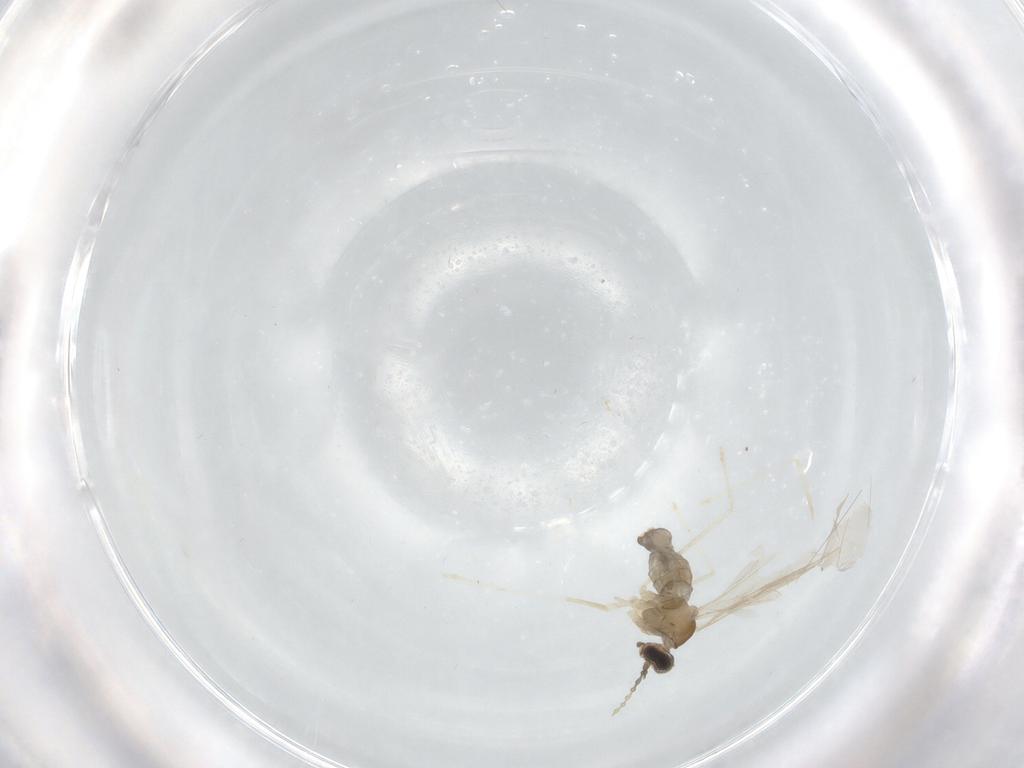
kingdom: Animalia
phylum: Arthropoda
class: Insecta
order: Diptera
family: Cecidomyiidae
